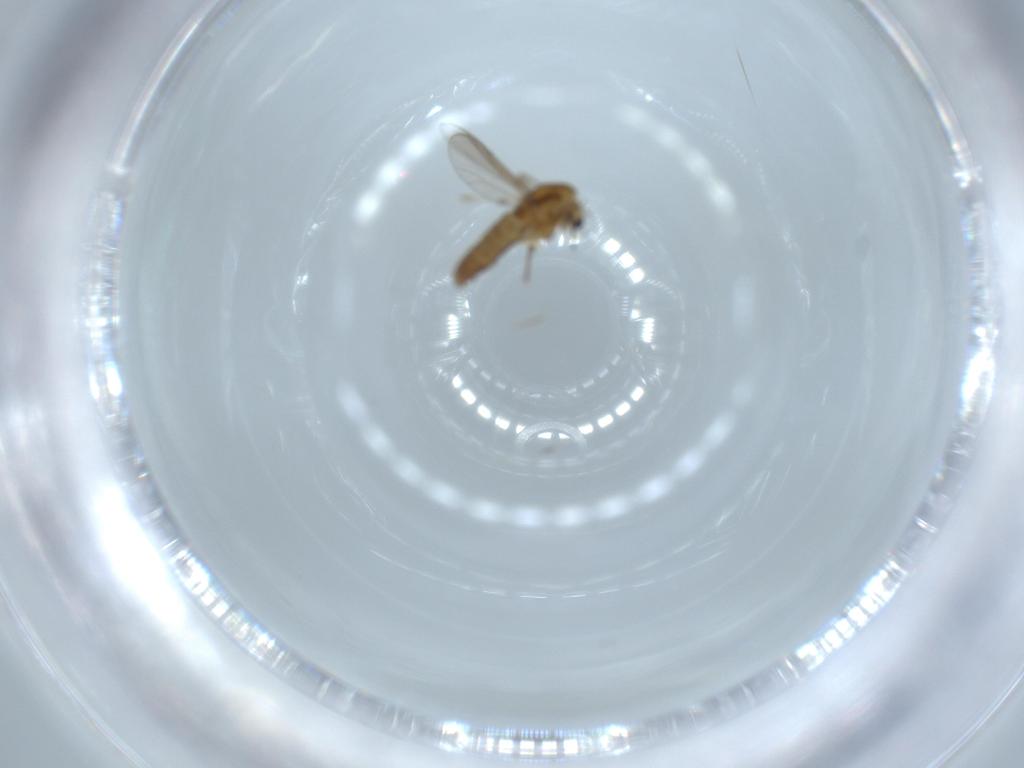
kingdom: Animalia
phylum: Arthropoda
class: Insecta
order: Diptera
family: Chironomidae
